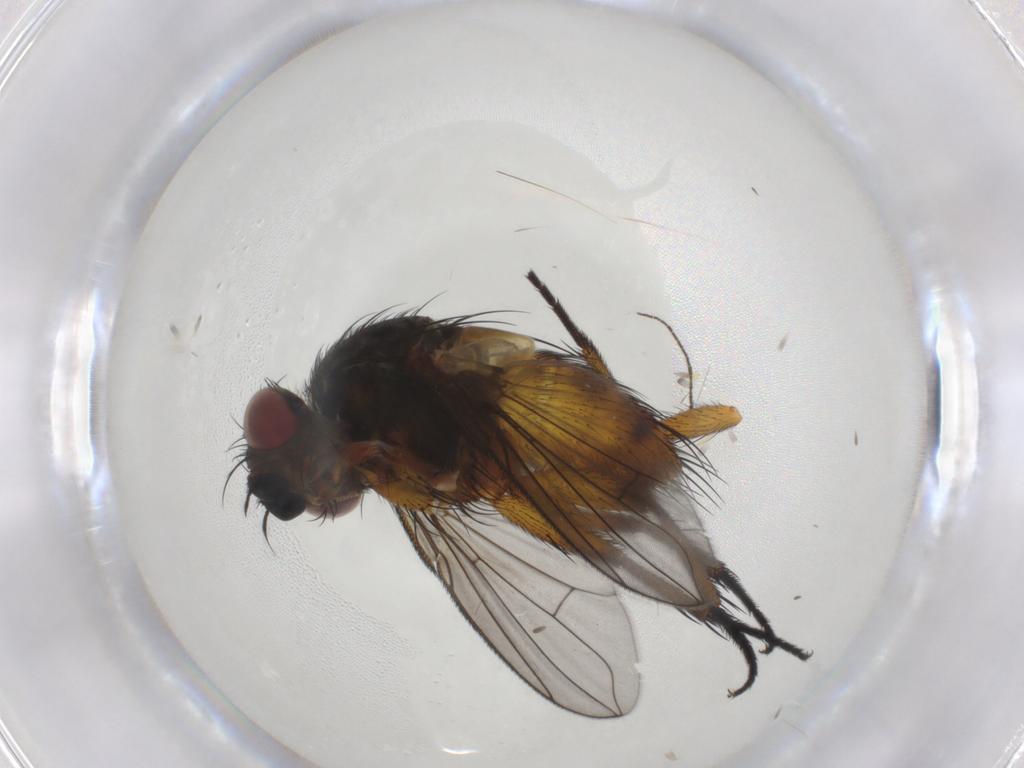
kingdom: Animalia
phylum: Arthropoda
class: Insecta
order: Diptera
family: Tachinidae
